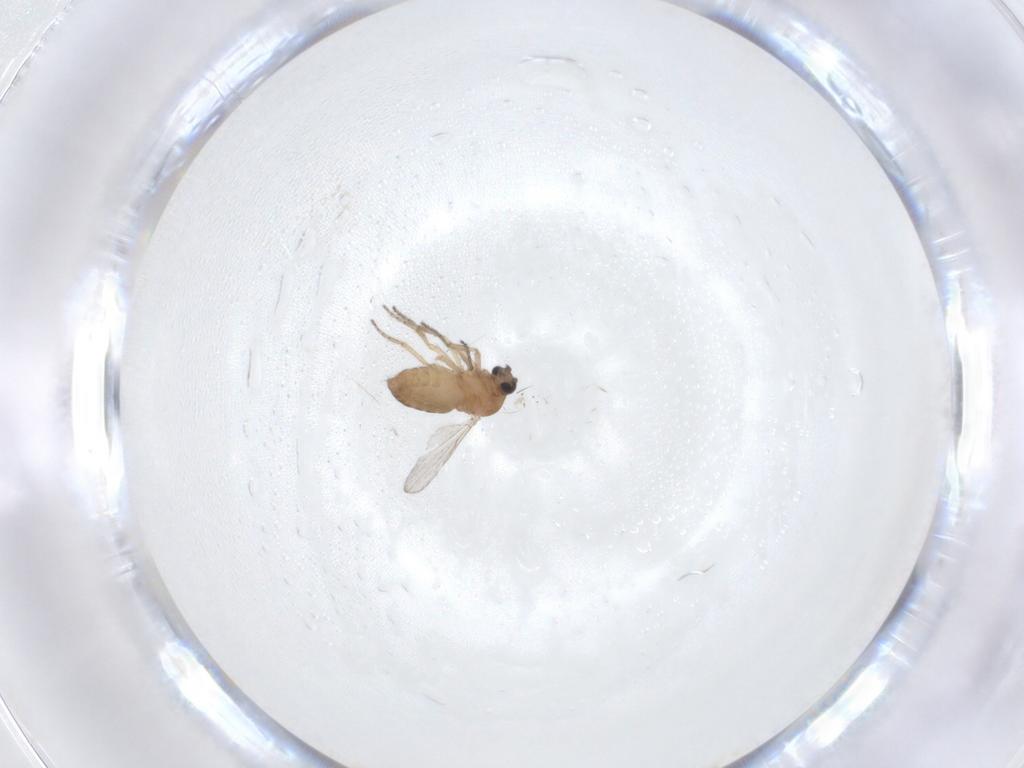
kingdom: Animalia
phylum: Arthropoda
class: Insecta
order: Diptera
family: Ceratopogonidae
